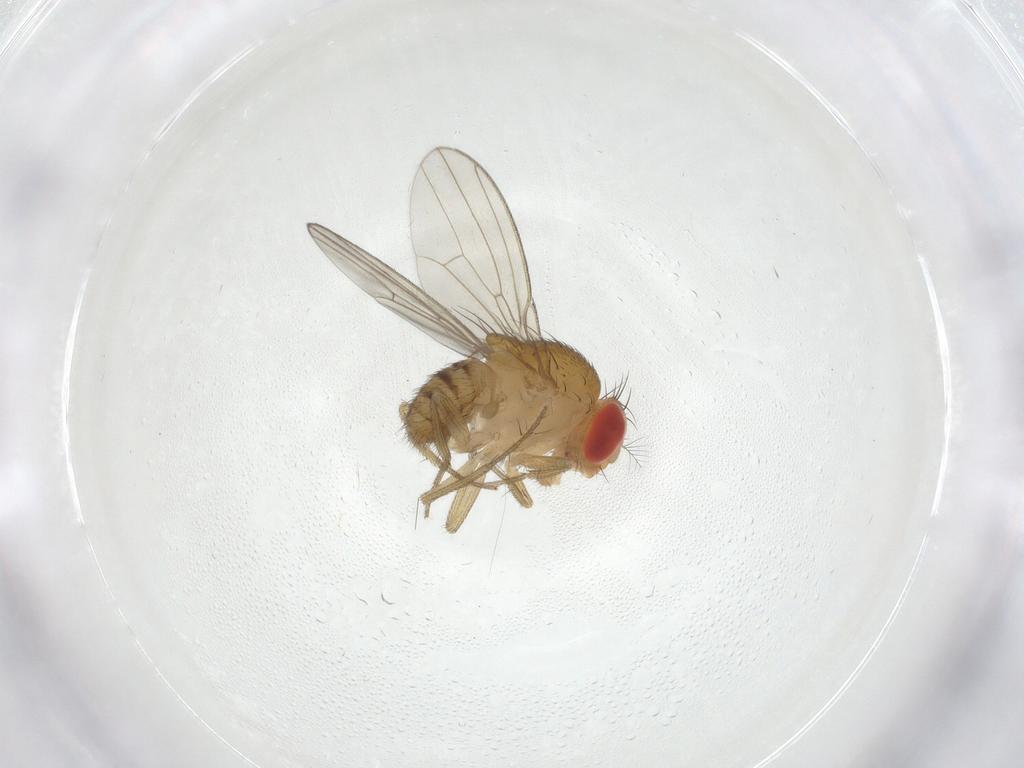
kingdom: Animalia
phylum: Arthropoda
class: Insecta
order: Diptera
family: Drosophilidae
